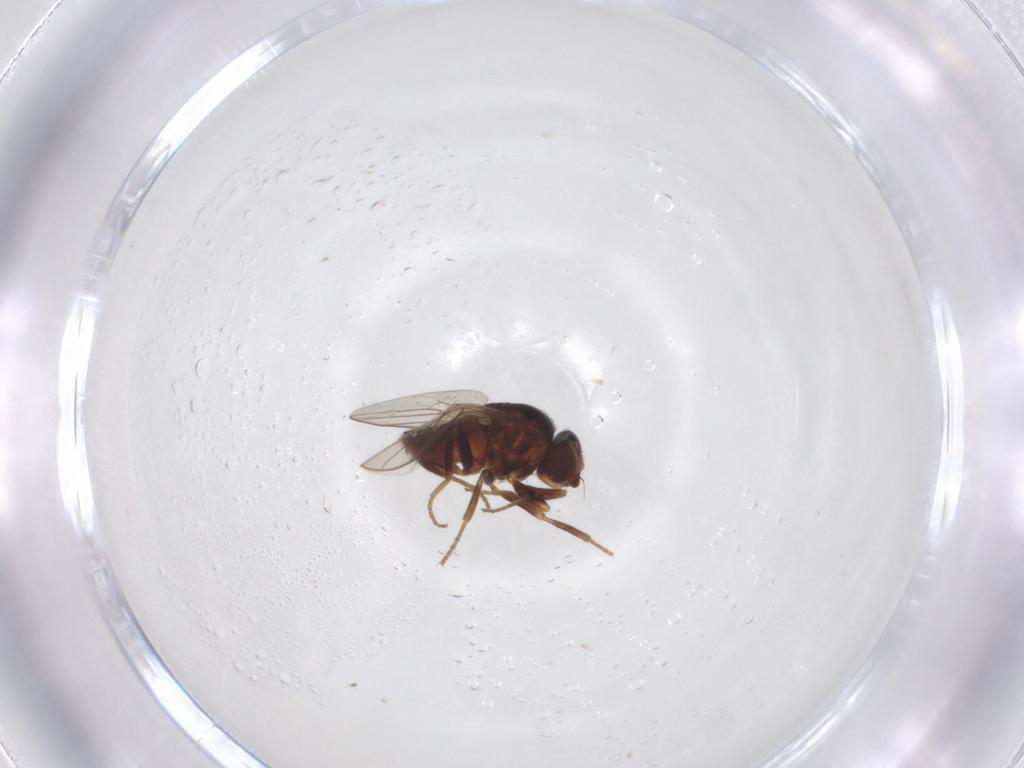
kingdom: Animalia
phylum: Arthropoda
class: Insecta
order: Diptera
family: Chloropidae
